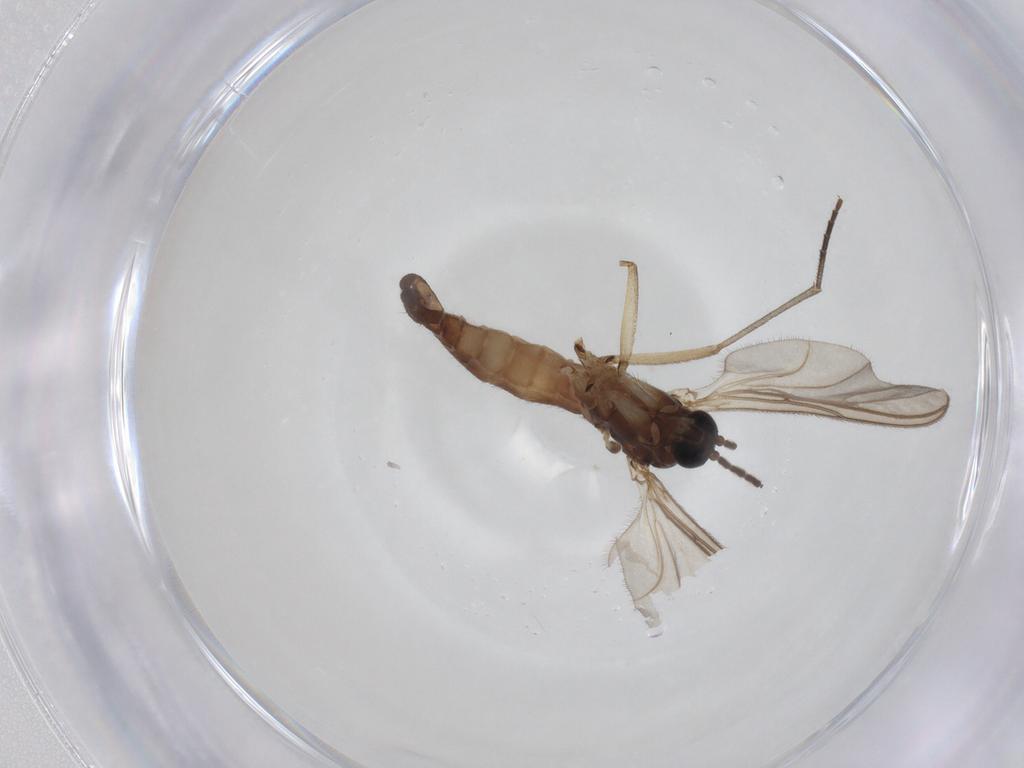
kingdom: Animalia
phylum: Arthropoda
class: Insecta
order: Diptera
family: Sciaridae
